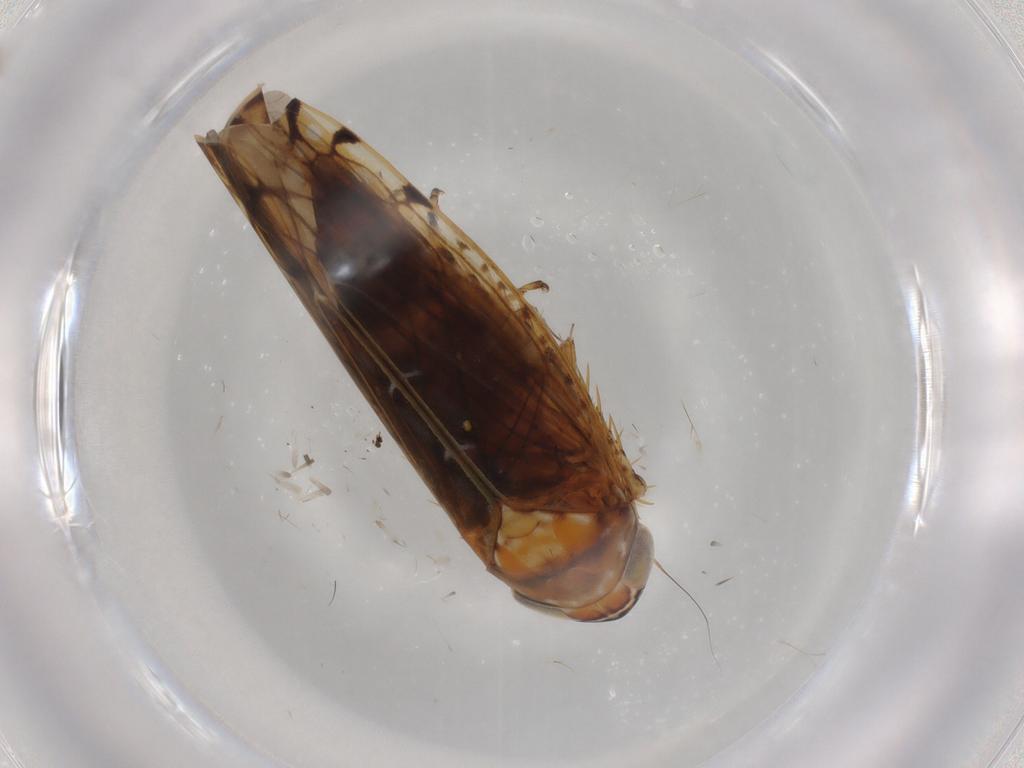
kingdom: Animalia
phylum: Arthropoda
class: Insecta
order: Hemiptera
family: Cicadellidae
